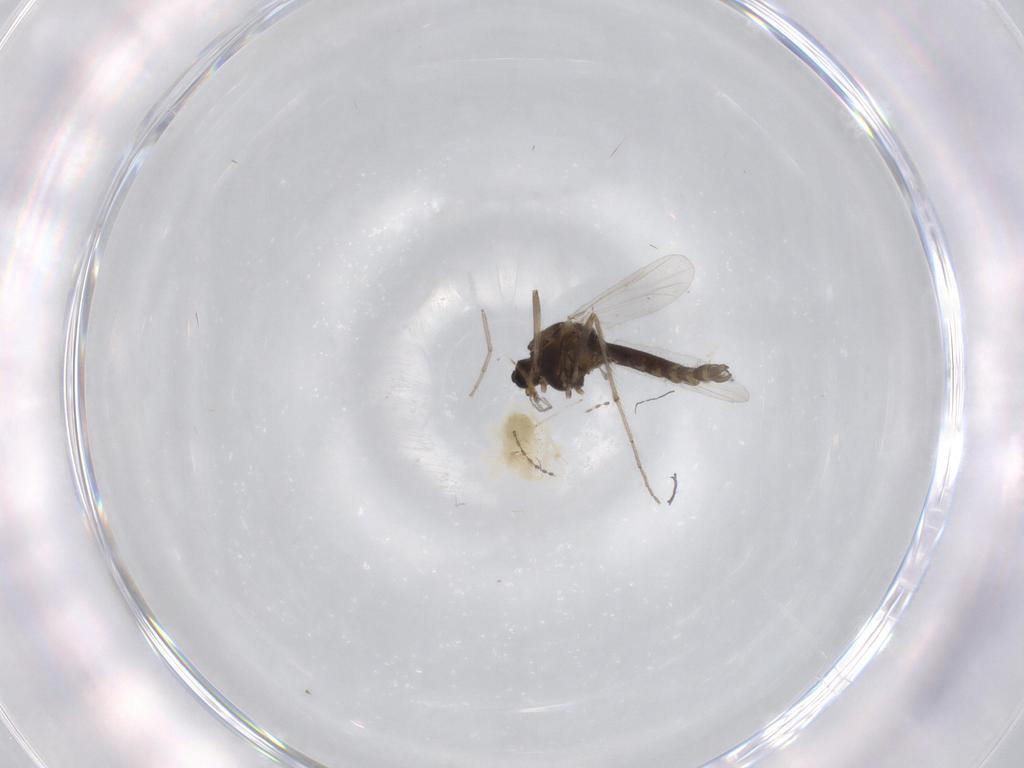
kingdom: Animalia
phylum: Arthropoda
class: Insecta
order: Diptera
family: Chironomidae
